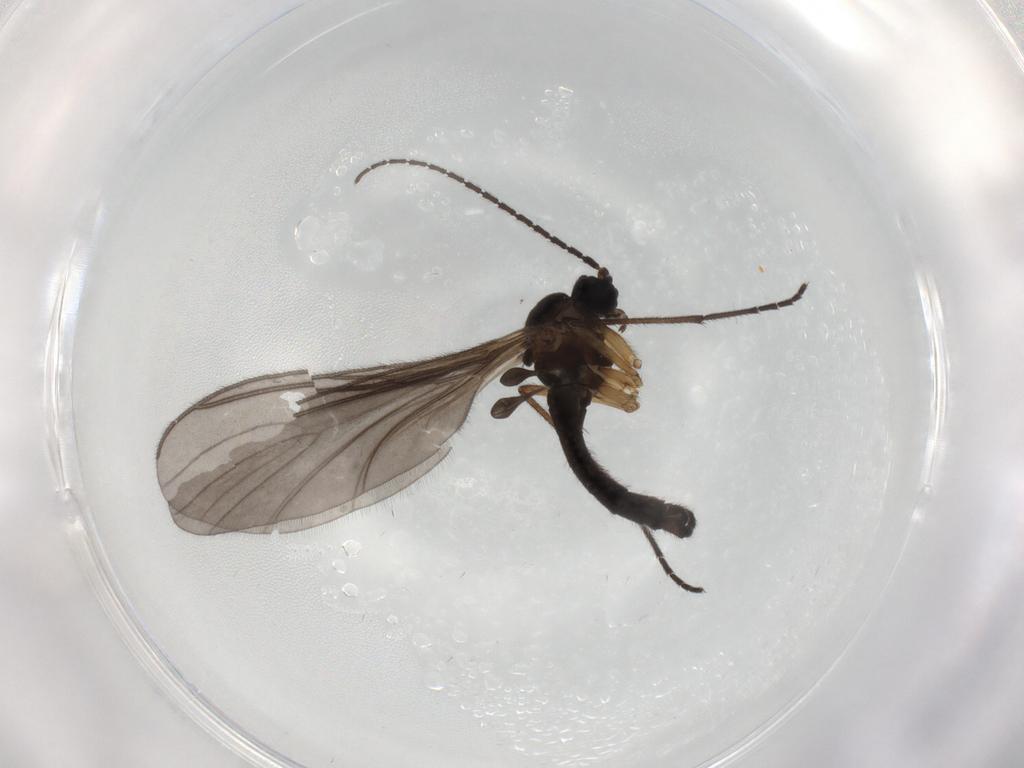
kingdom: Animalia
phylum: Arthropoda
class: Insecta
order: Diptera
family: Sciaridae
